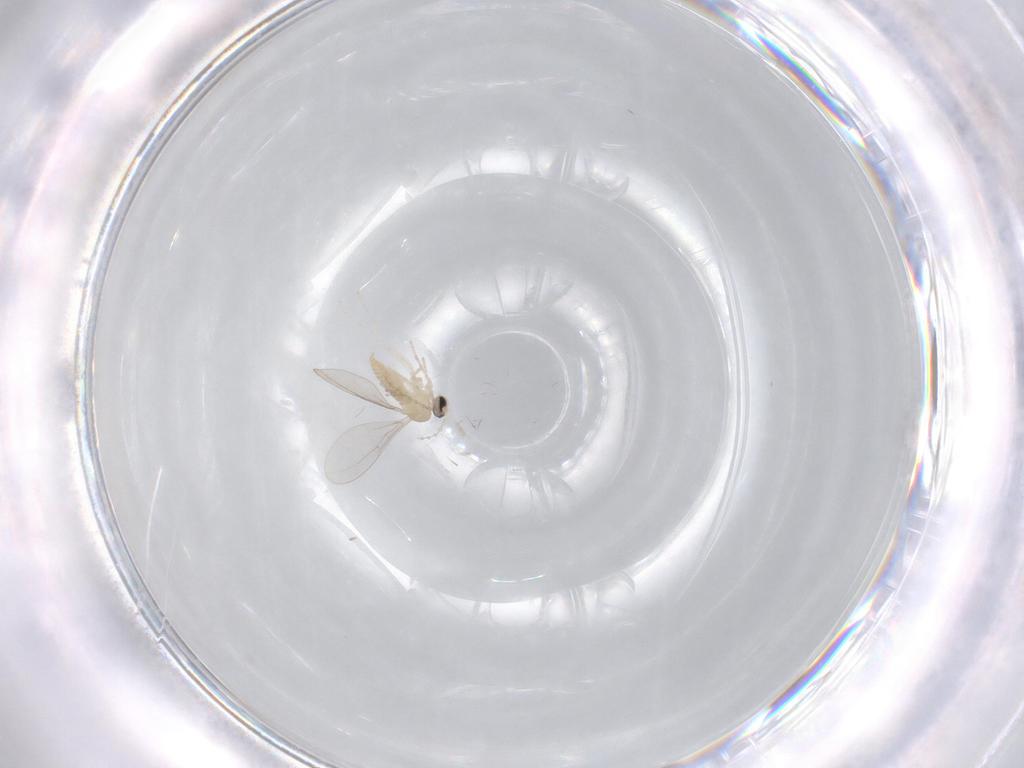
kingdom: Animalia
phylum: Arthropoda
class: Insecta
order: Diptera
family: Cecidomyiidae
